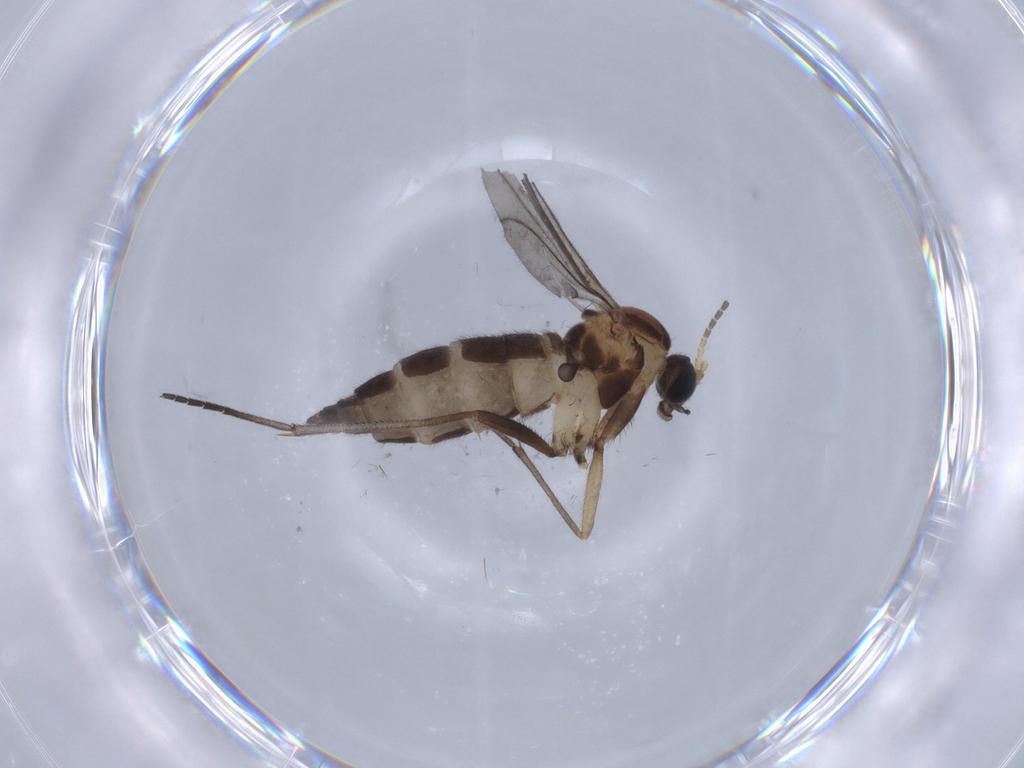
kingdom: Animalia
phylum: Arthropoda
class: Insecta
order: Diptera
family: Sciaridae
